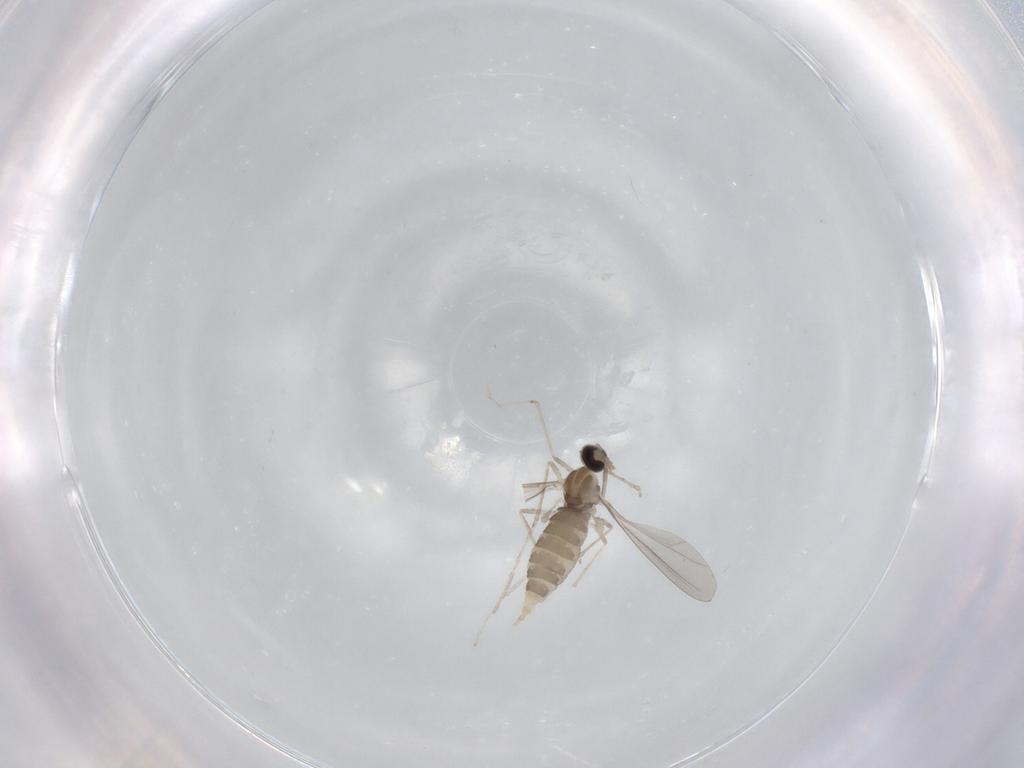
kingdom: Animalia
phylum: Arthropoda
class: Insecta
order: Diptera
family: Cecidomyiidae
